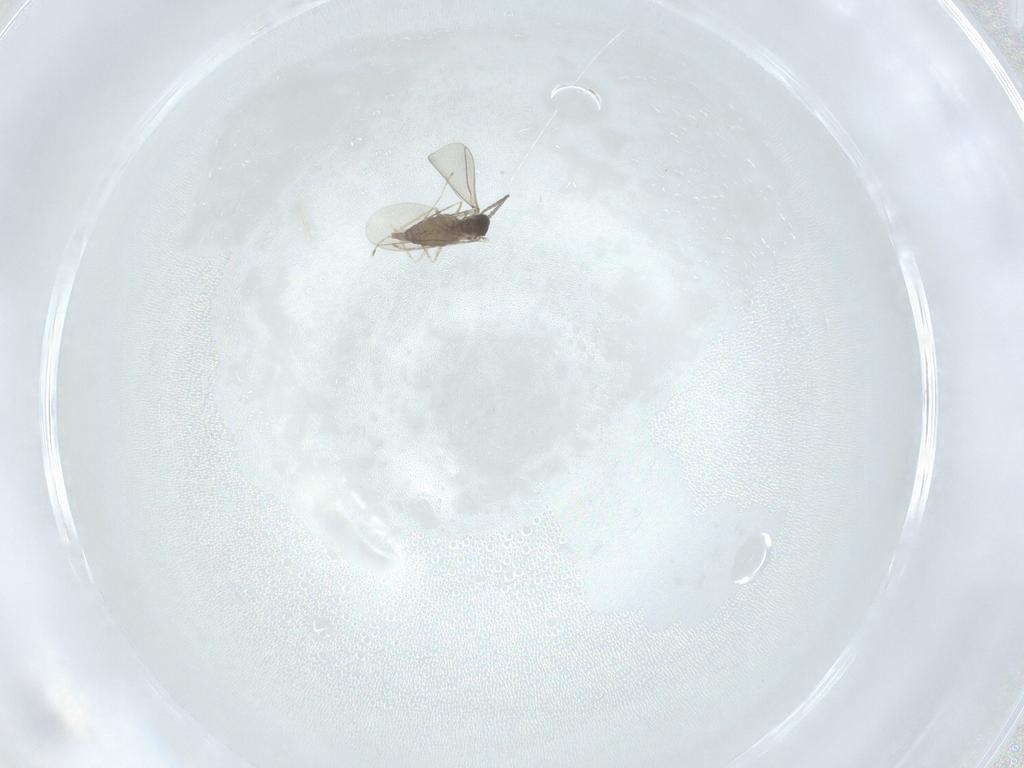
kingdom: Animalia
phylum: Arthropoda
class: Insecta
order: Diptera
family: Cecidomyiidae
